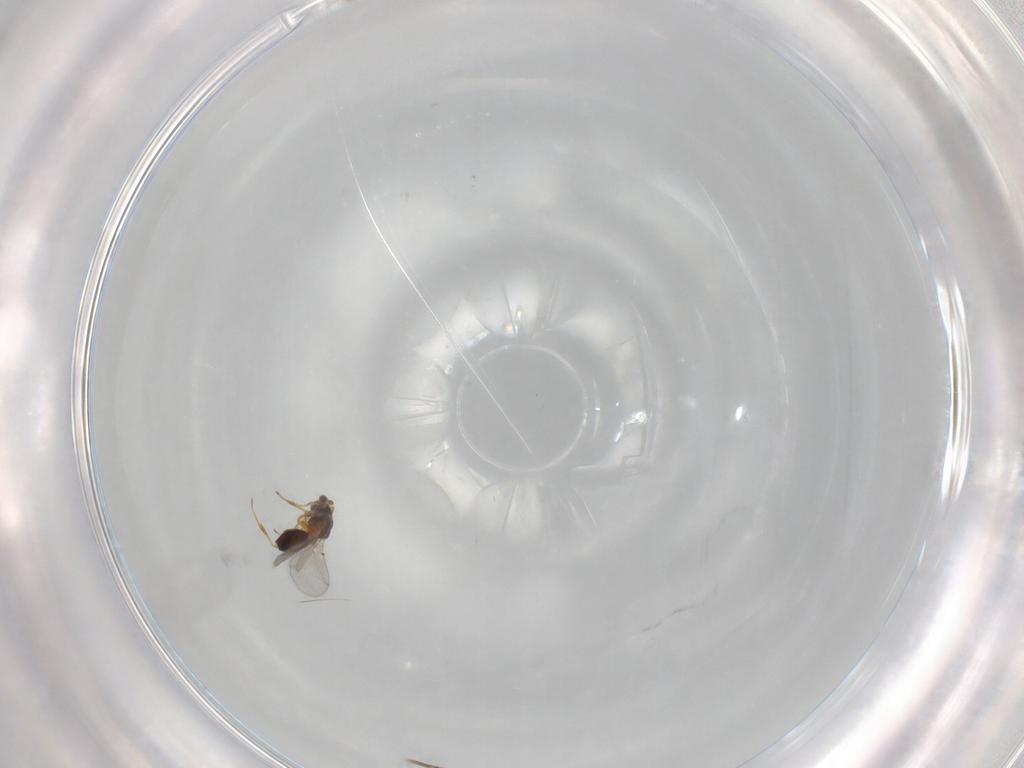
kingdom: Animalia
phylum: Arthropoda
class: Insecta
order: Hymenoptera
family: Diapriidae
